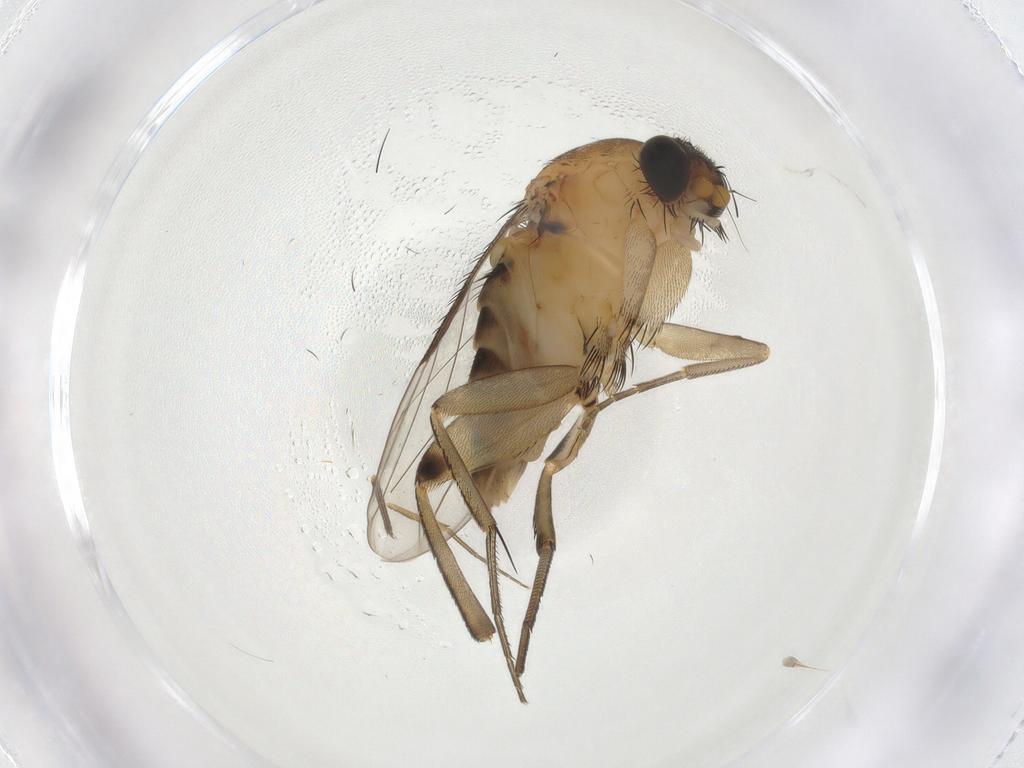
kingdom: Animalia
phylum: Arthropoda
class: Insecta
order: Diptera
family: Phoridae
